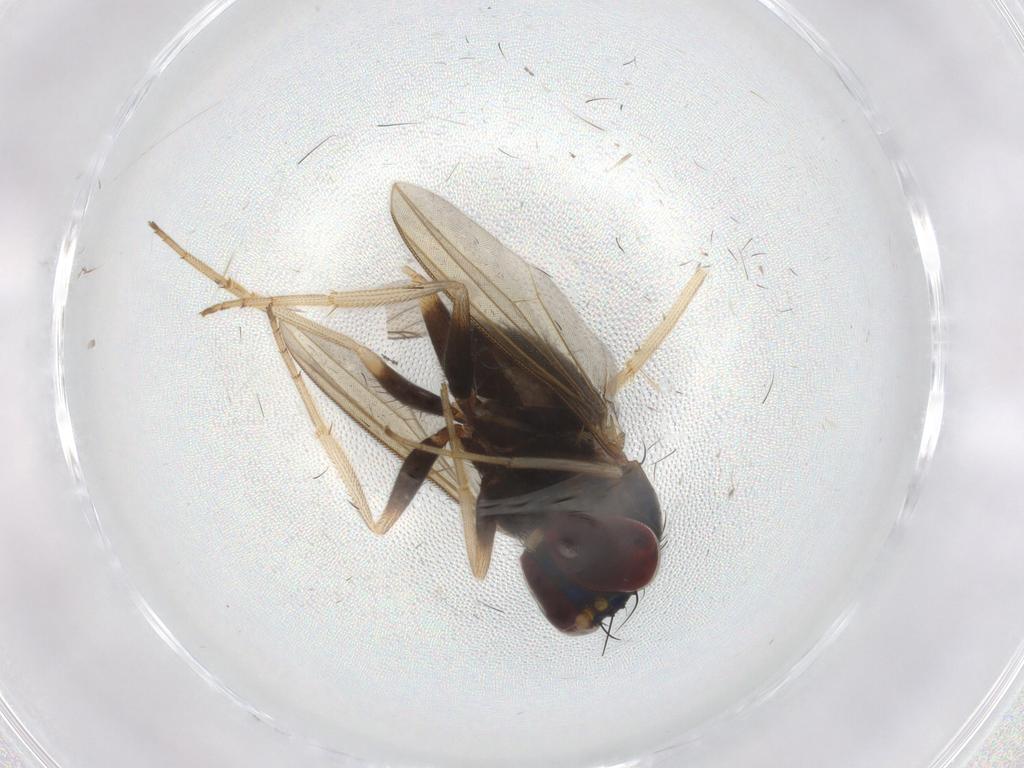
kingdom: Animalia
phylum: Arthropoda
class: Insecta
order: Diptera
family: Dolichopodidae
